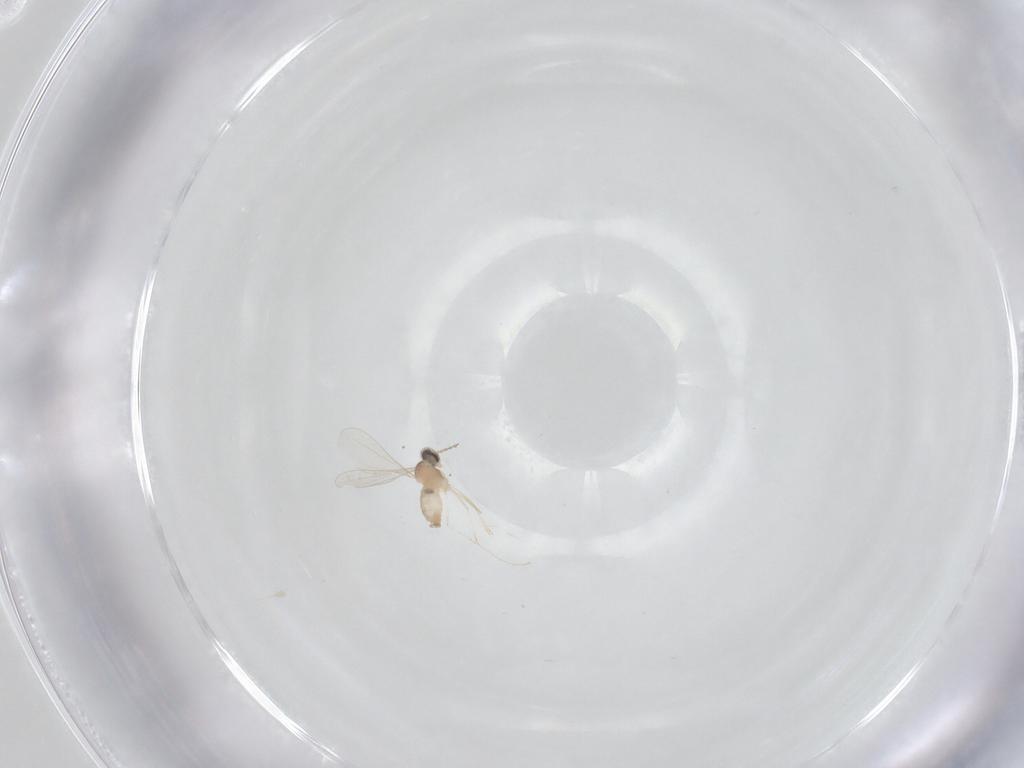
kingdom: Animalia
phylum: Arthropoda
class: Insecta
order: Diptera
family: Cecidomyiidae
